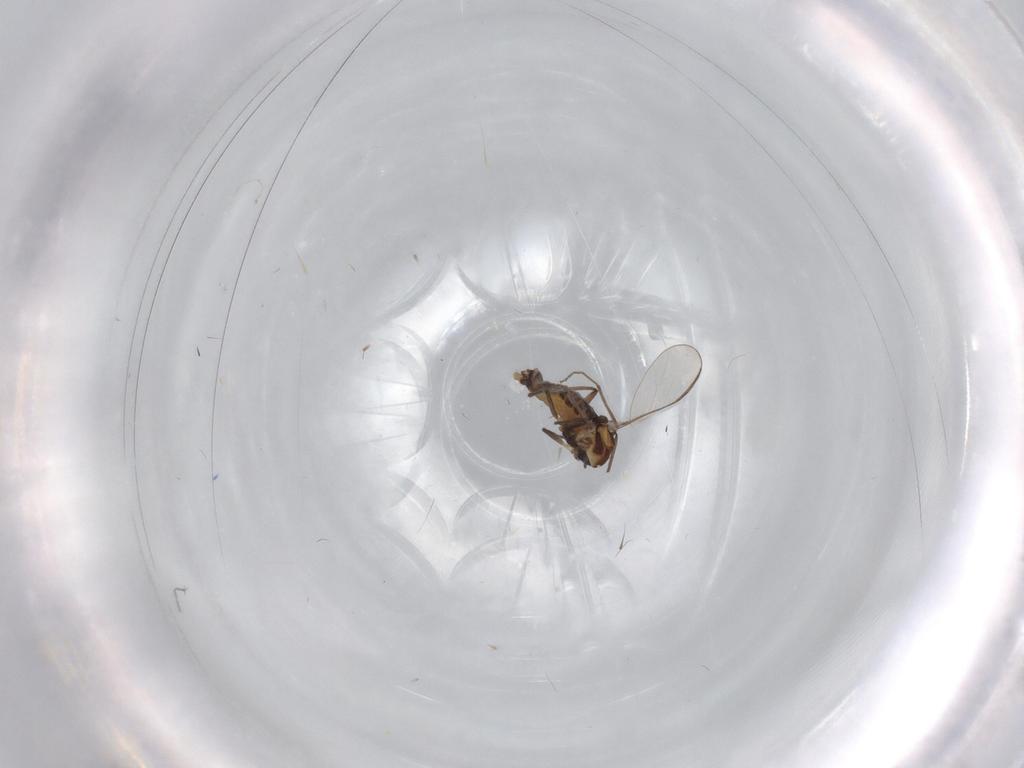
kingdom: Animalia
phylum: Arthropoda
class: Insecta
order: Diptera
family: Chironomidae
